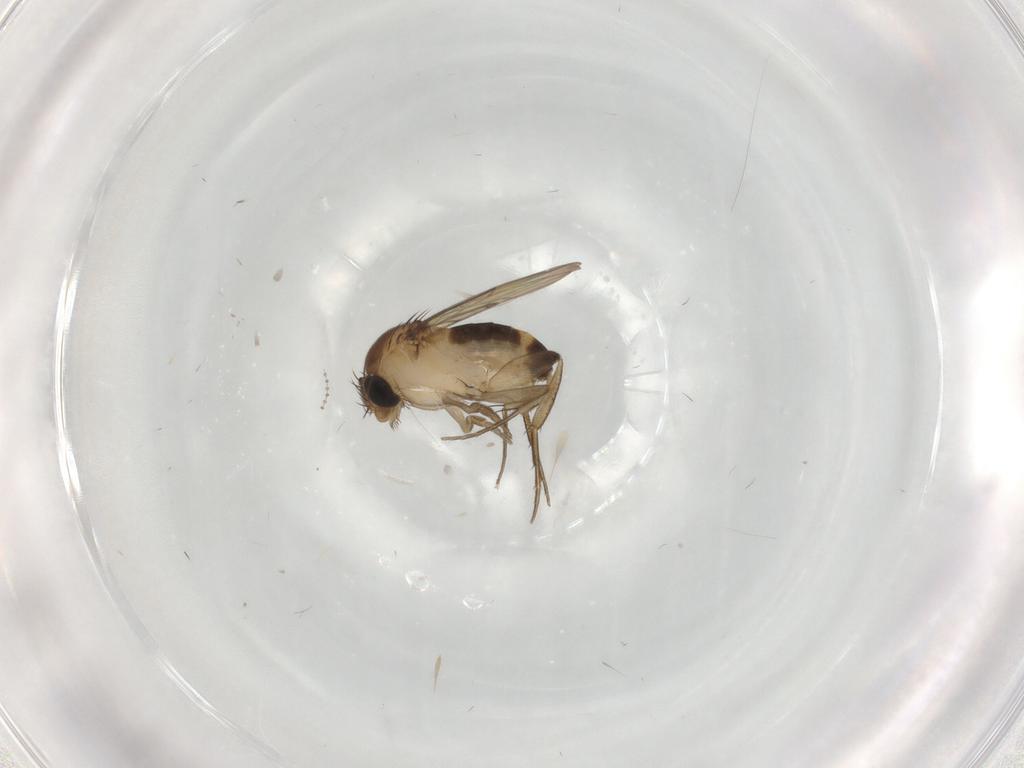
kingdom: Animalia
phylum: Arthropoda
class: Insecta
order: Diptera
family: Phoridae
